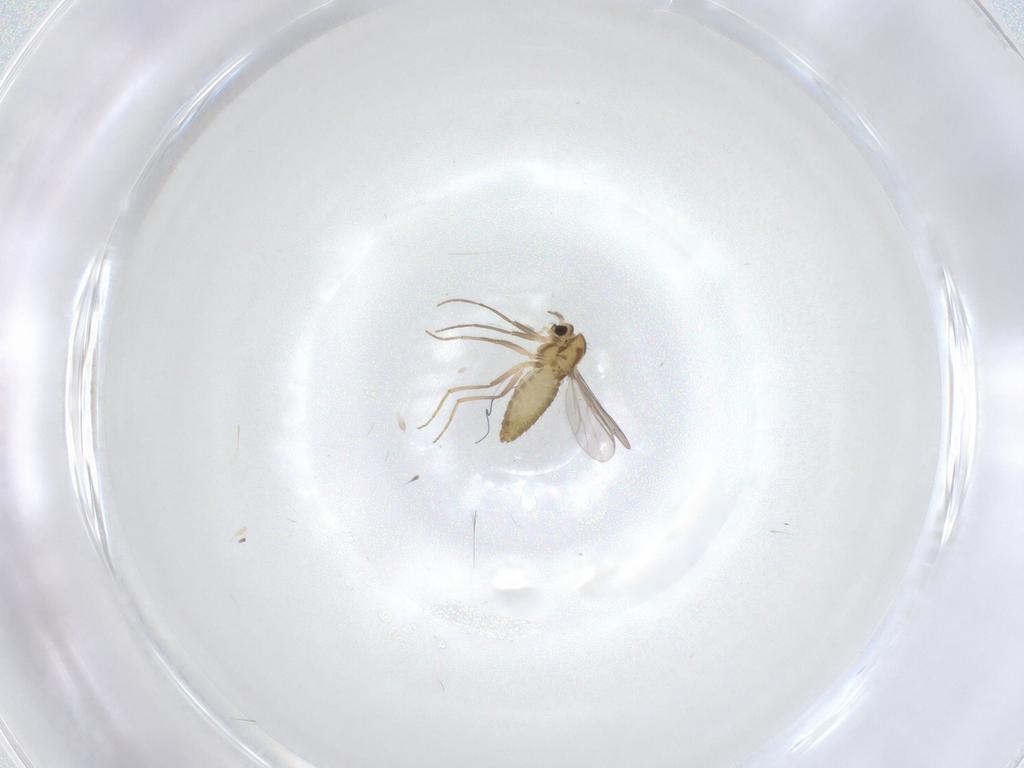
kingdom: Animalia
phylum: Arthropoda
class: Insecta
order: Diptera
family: Chironomidae
